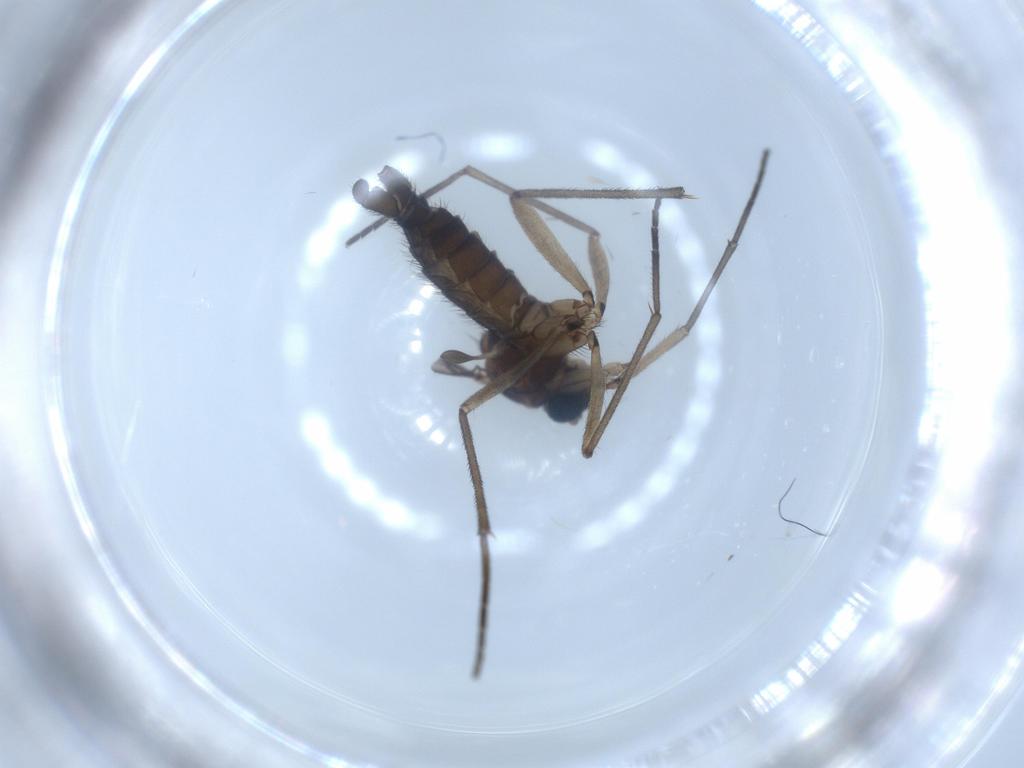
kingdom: Animalia
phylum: Arthropoda
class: Insecta
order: Diptera
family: Sciaridae
